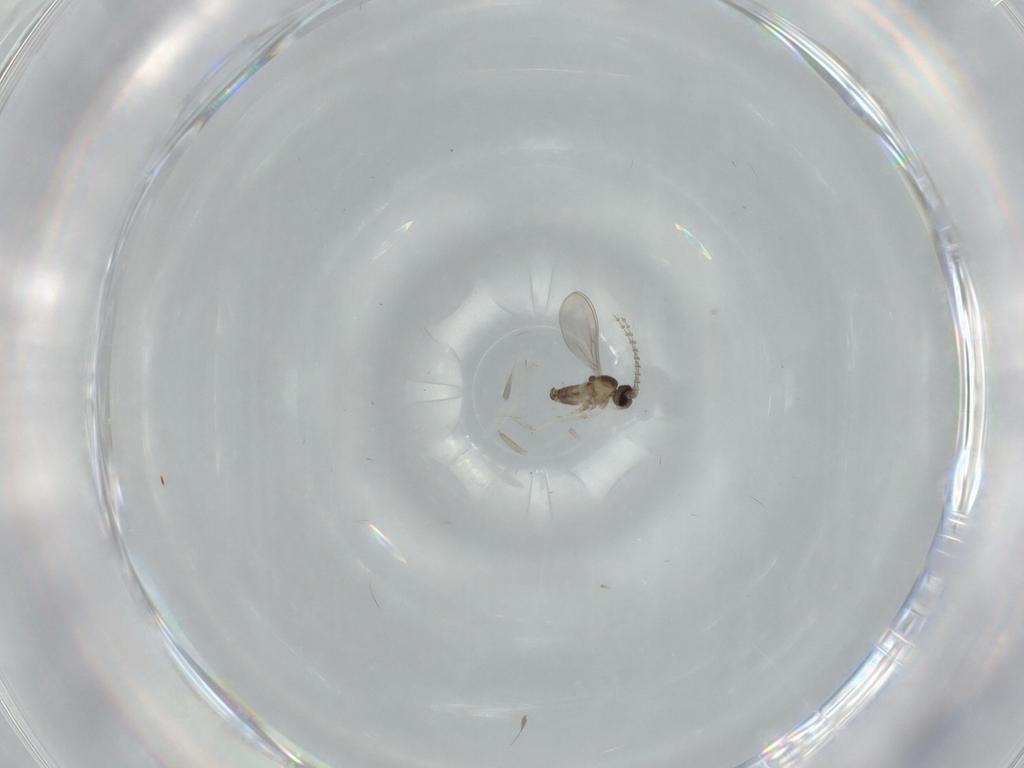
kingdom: Animalia
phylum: Arthropoda
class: Insecta
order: Diptera
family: Cecidomyiidae
